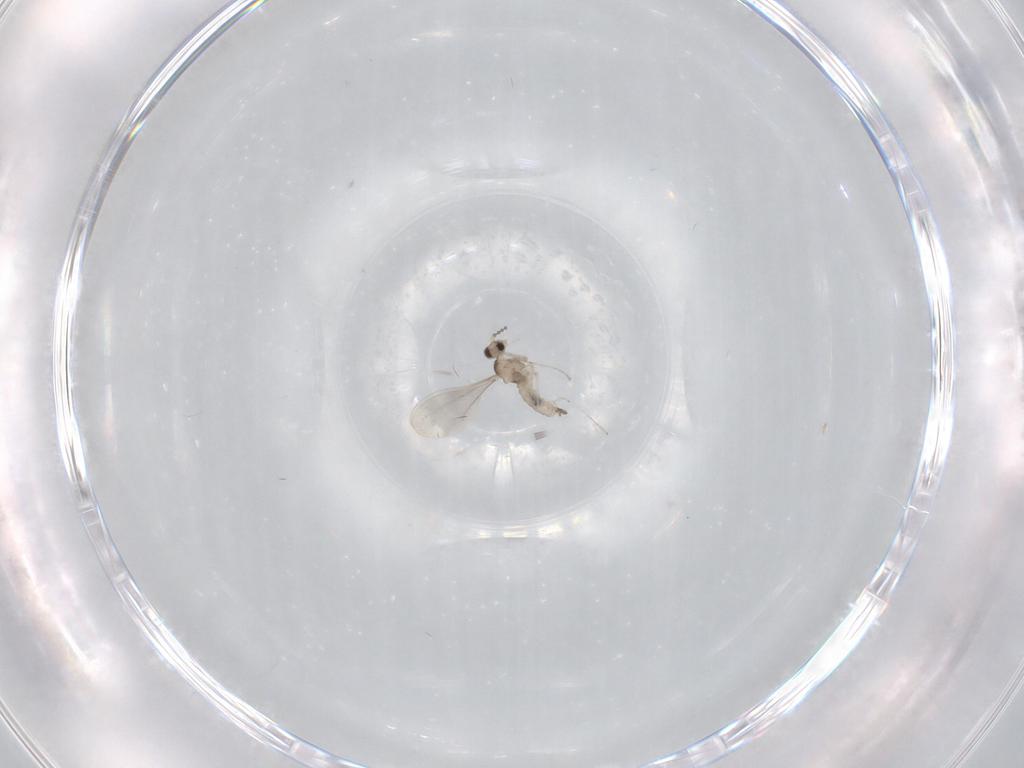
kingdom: Animalia
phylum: Arthropoda
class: Insecta
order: Diptera
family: Cecidomyiidae
